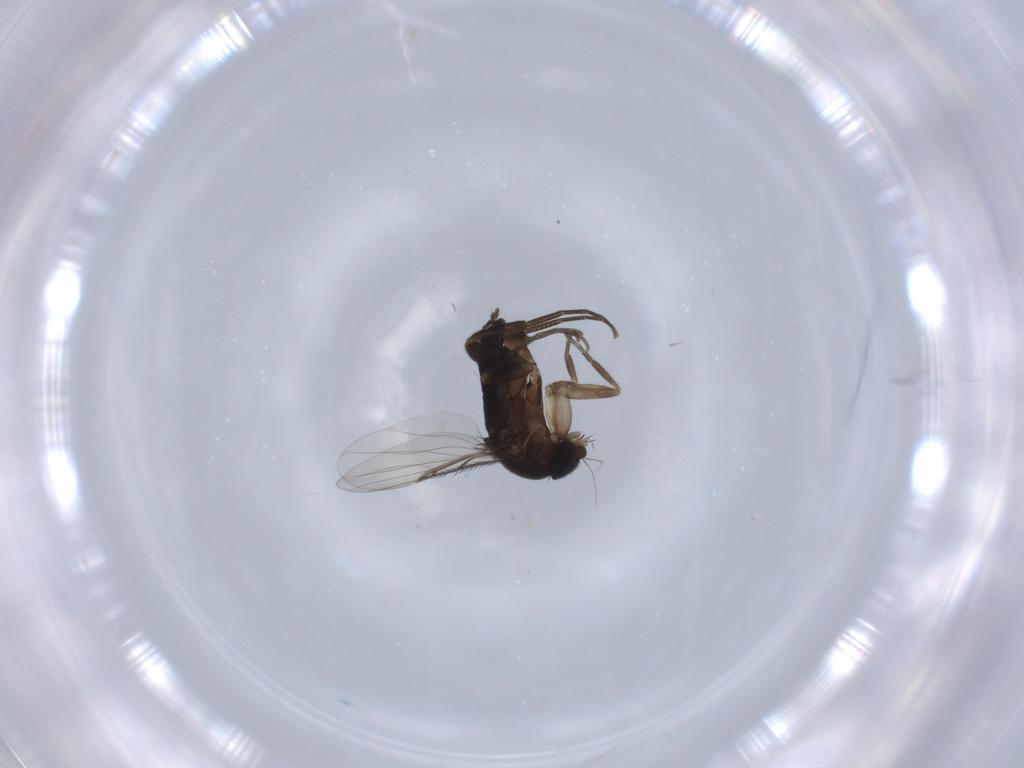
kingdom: Animalia
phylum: Arthropoda
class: Insecta
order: Diptera
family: Phoridae
